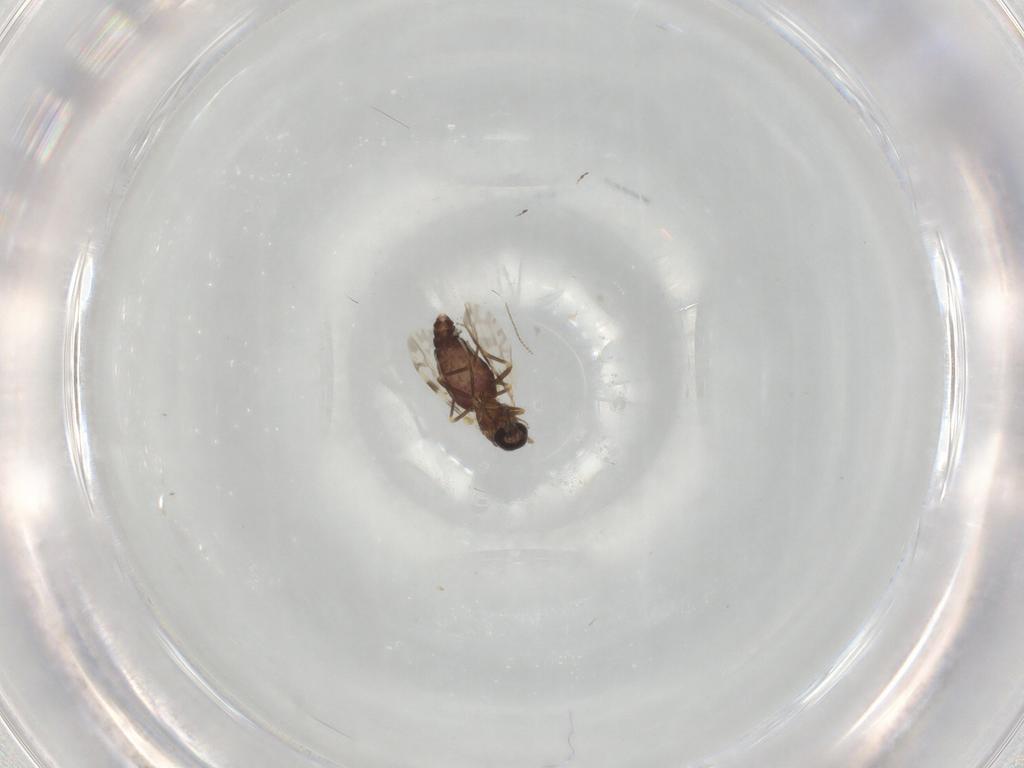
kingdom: Animalia
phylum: Arthropoda
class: Insecta
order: Diptera
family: Ceratopogonidae
